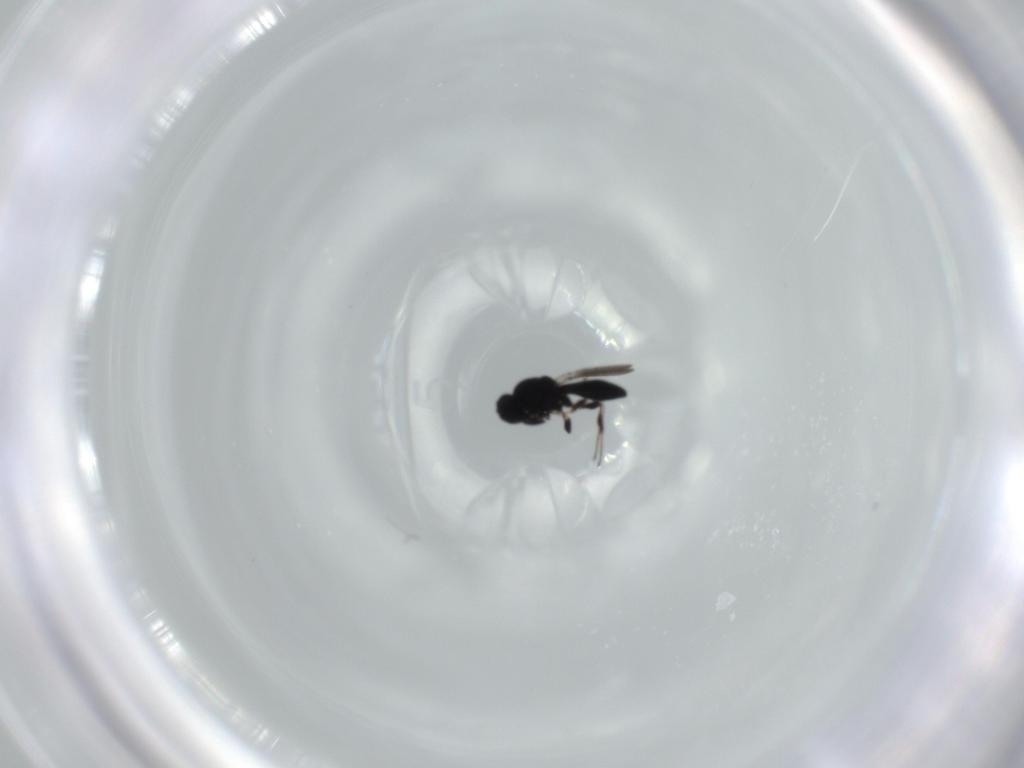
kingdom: Animalia
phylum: Arthropoda
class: Insecta
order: Hymenoptera
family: Platygastridae
